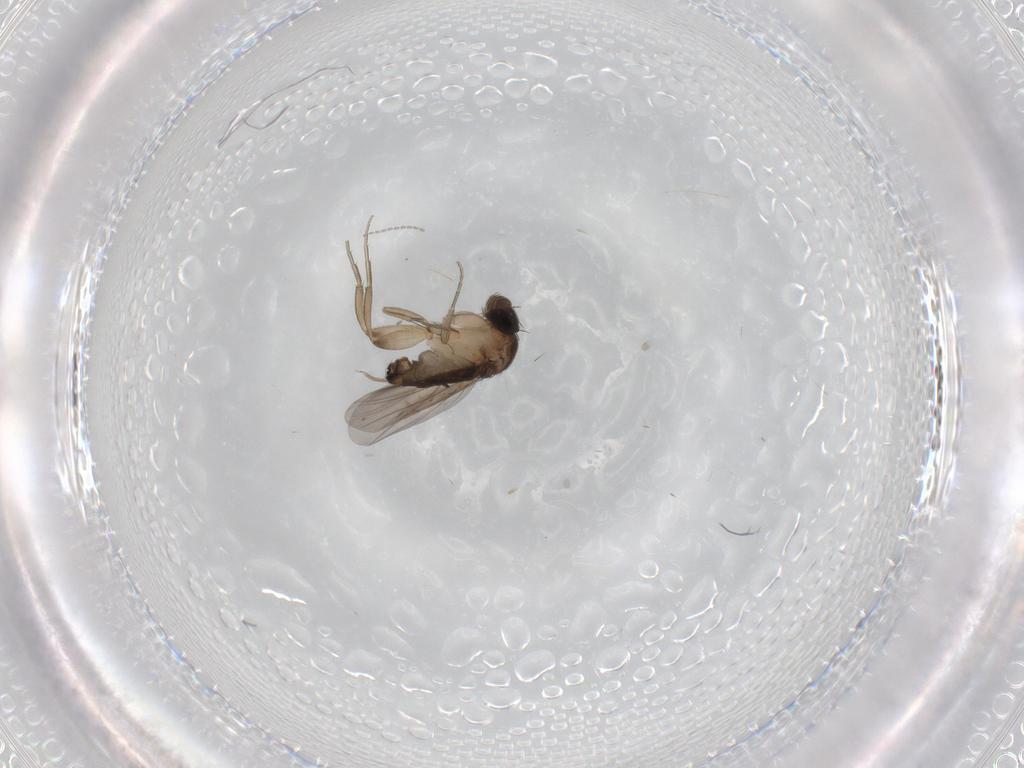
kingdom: Animalia
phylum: Arthropoda
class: Insecta
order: Diptera
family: Phoridae
